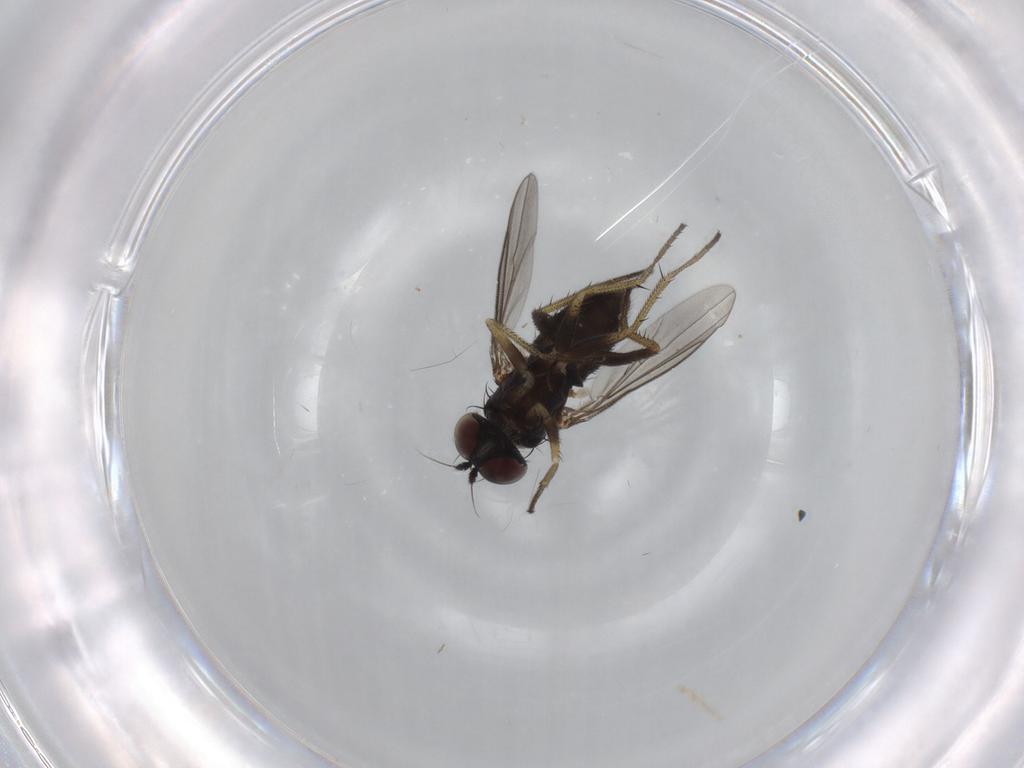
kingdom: Animalia
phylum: Arthropoda
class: Insecta
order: Diptera
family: Dolichopodidae
